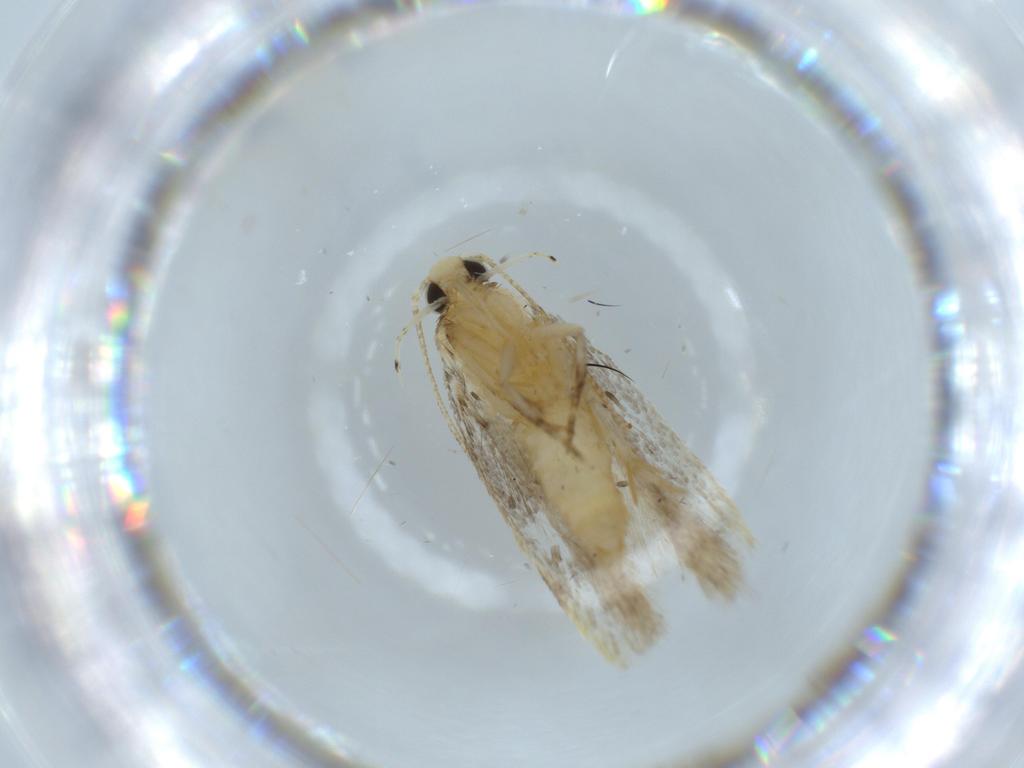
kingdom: Animalia
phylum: Arthropoda
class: Insecta
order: Lepidoptera
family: Autostichidae
